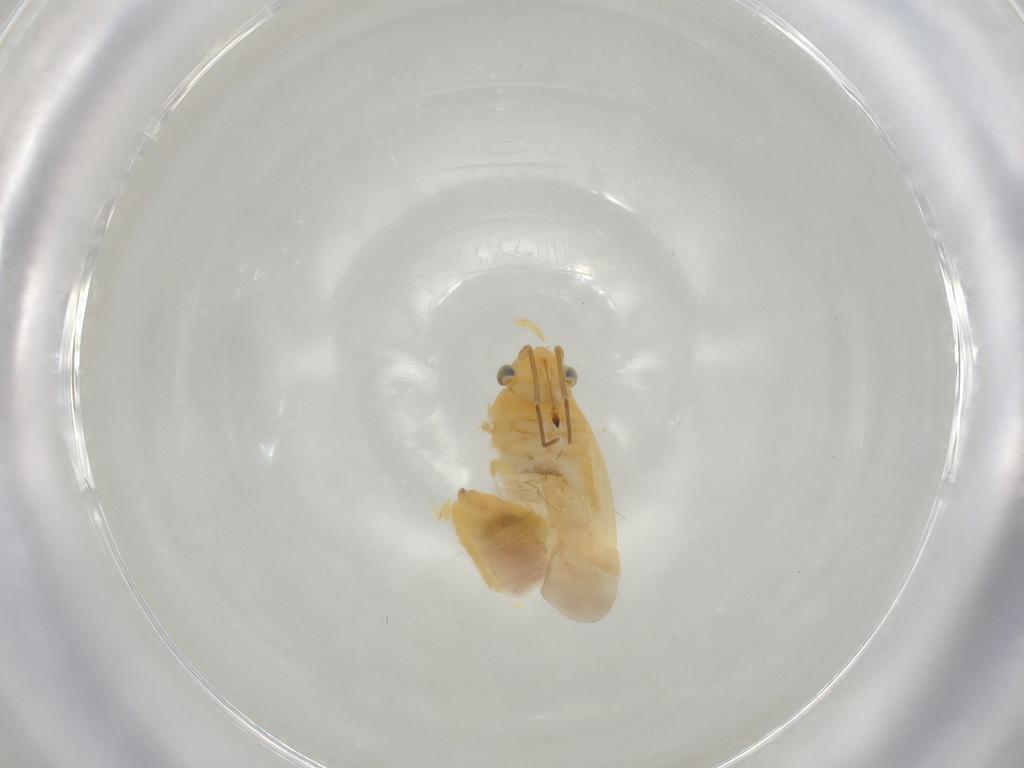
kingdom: Animalia
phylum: Arthropoda
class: Insecta
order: Hemiptera
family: Miridae
